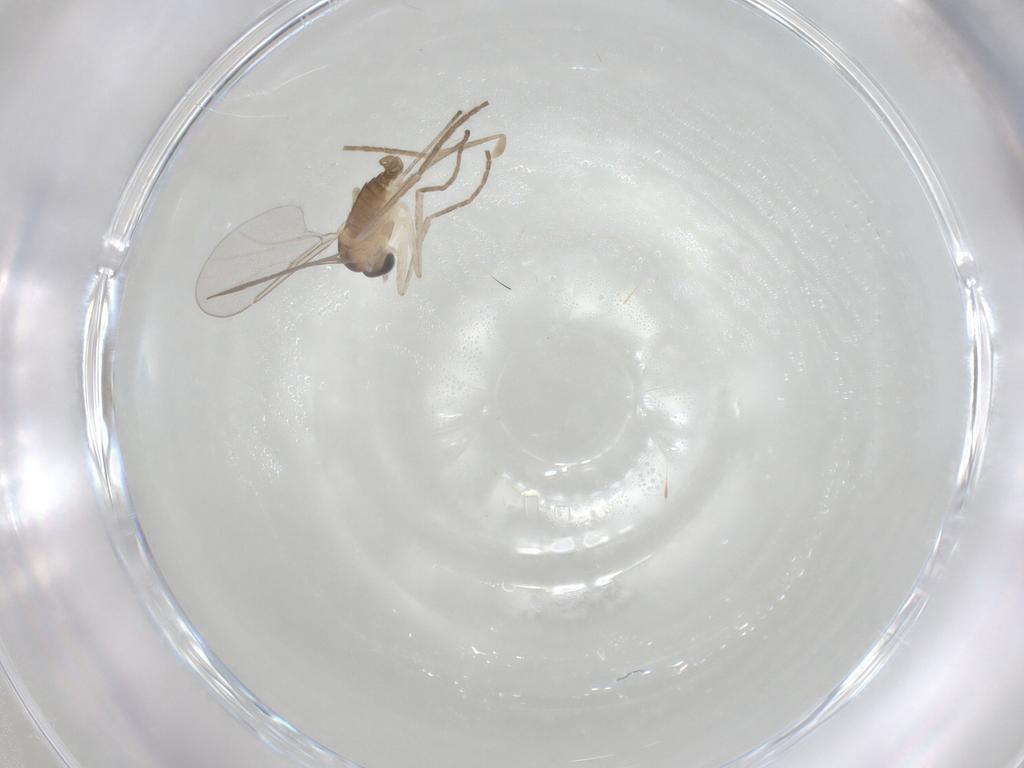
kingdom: Animalia
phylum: Arthropoda
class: Insecta
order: Diptera
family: Cecidomyiidae
